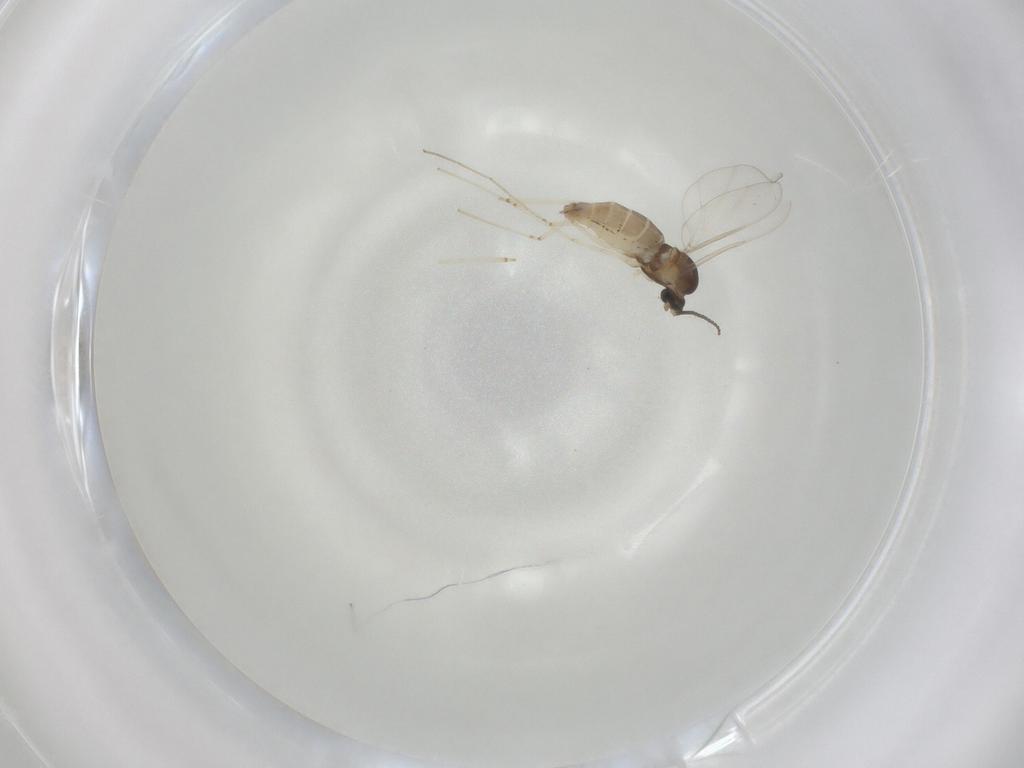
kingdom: Animalia
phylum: Arthropoda
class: Insecta
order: Diptera
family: Cecidomyiidae
